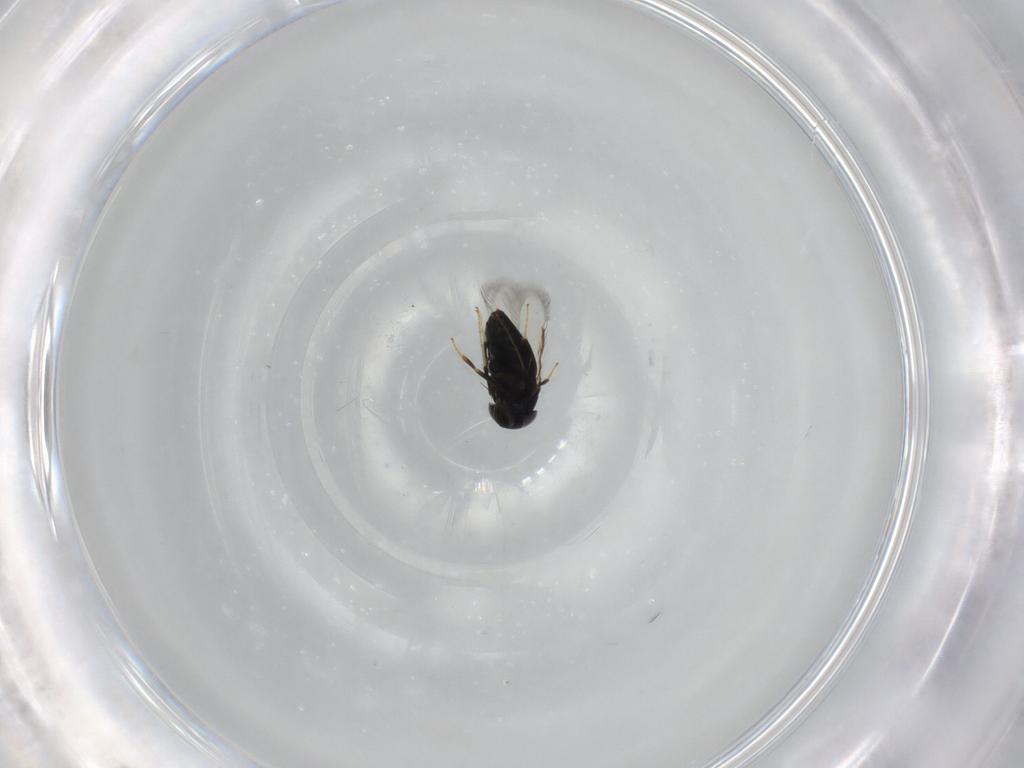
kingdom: Animalia
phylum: Arthropoda
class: Insecta
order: Hymenoptera
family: Signiphoridae
